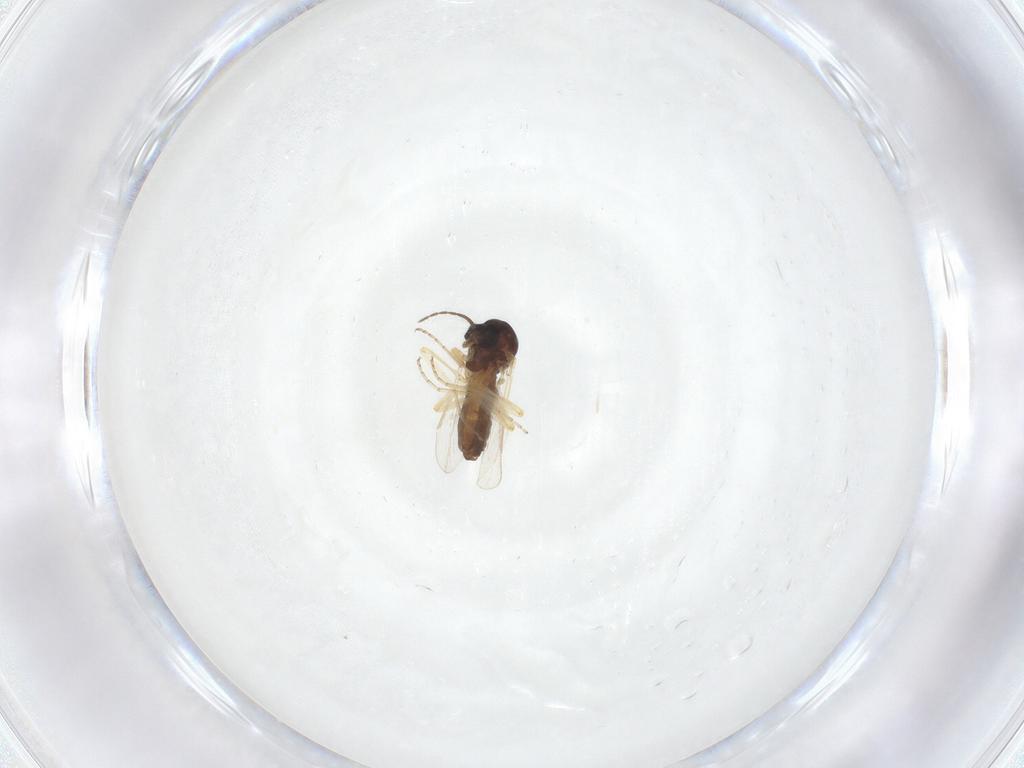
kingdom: Animalia
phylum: Arthropoda
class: Insecta
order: Diptera
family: Ceratopogonidae
